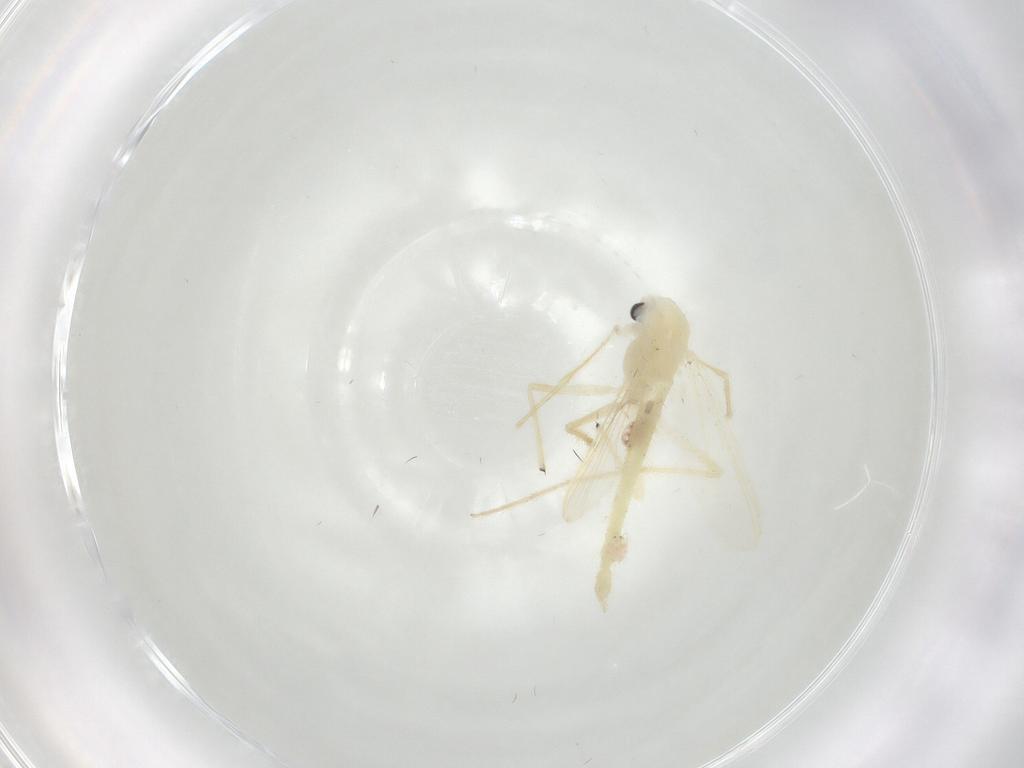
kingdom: Animalia
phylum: Arthropoda
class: Insecta
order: Diptera
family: Chironomidae
